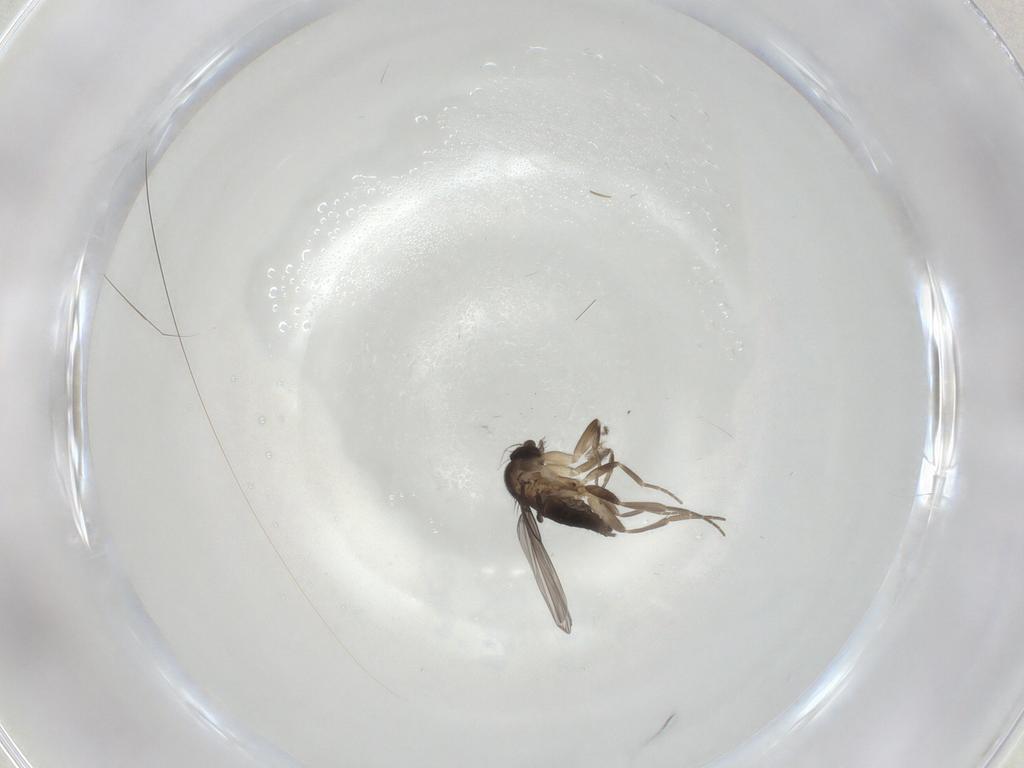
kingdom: Animalia
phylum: Arthropoda
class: Insecta
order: Diptera
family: Phoridae
